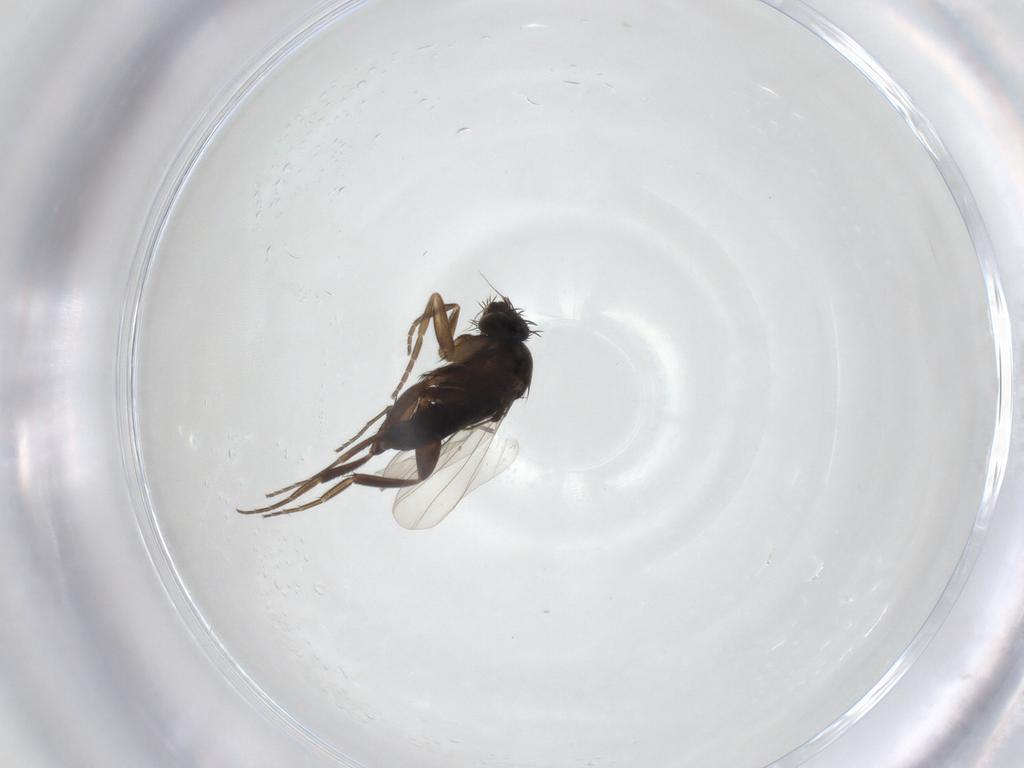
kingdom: Animalia
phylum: Arthropoda
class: Insecta
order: Diptera
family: Phoridae
